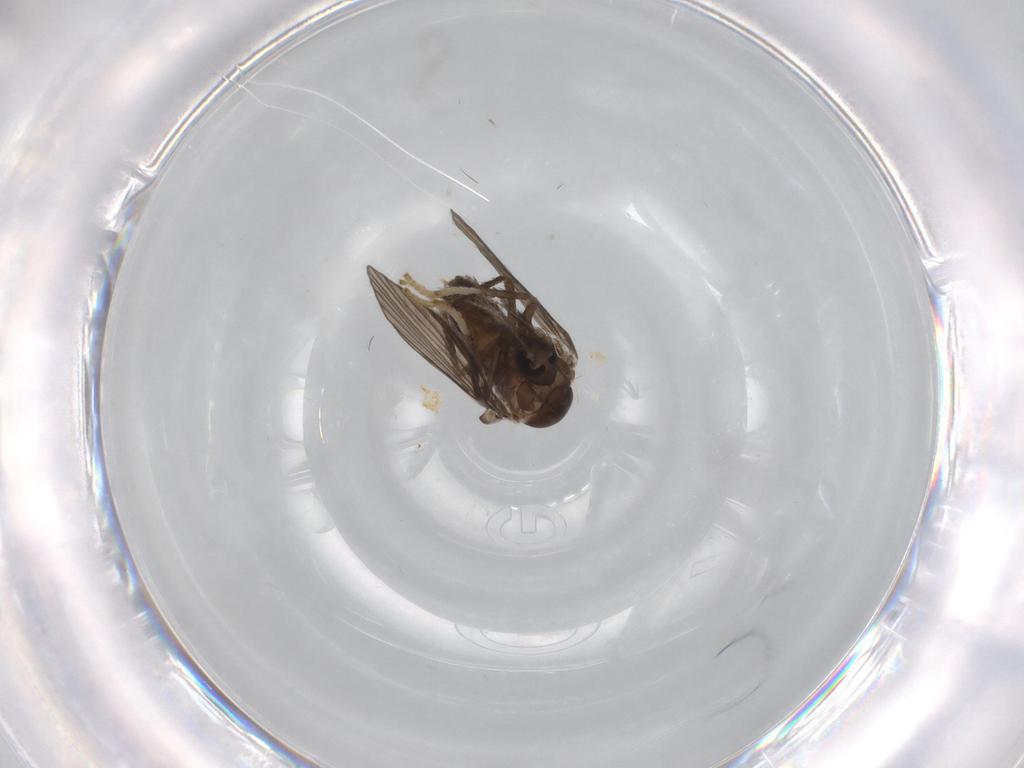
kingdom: Animalia
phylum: Arthropoda
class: Insecta
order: Diptera
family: Psychodidae
